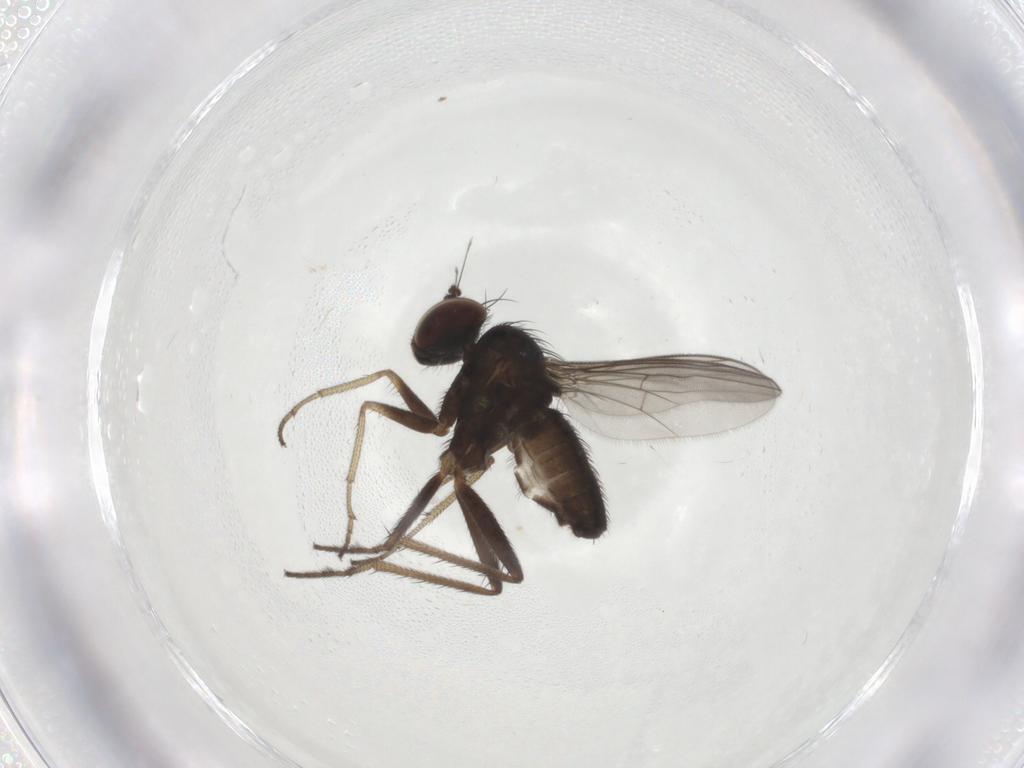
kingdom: Animalia
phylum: Arthropoda
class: Insecta
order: Diptera
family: Dolichopodidae
